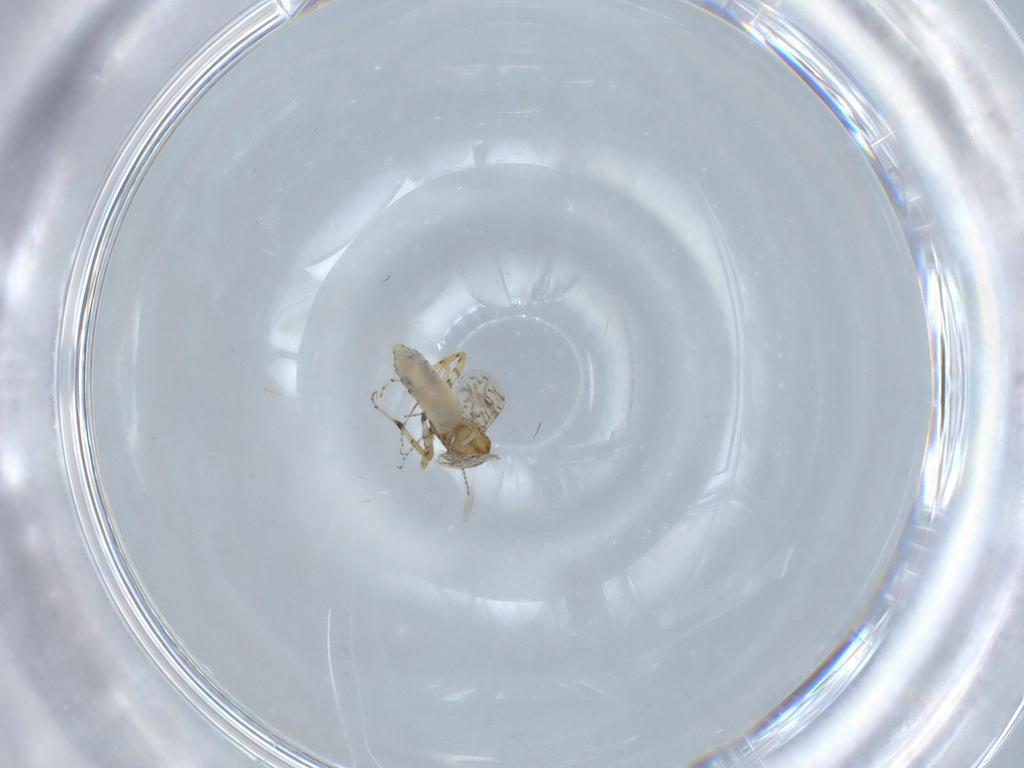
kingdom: Animalia
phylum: Arthropoda
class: Insecta
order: Diptera
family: Ceratopogonidae
